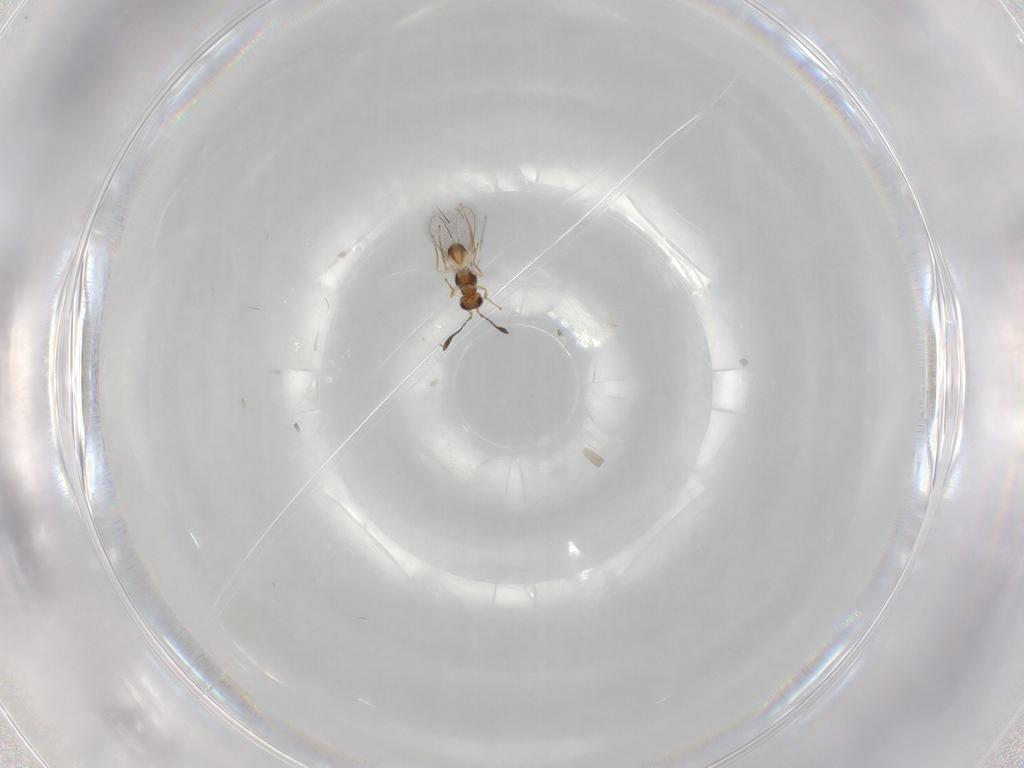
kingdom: Animalia
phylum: Arthropoda
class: Insecta
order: Hymenoptera
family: Mymaridae
